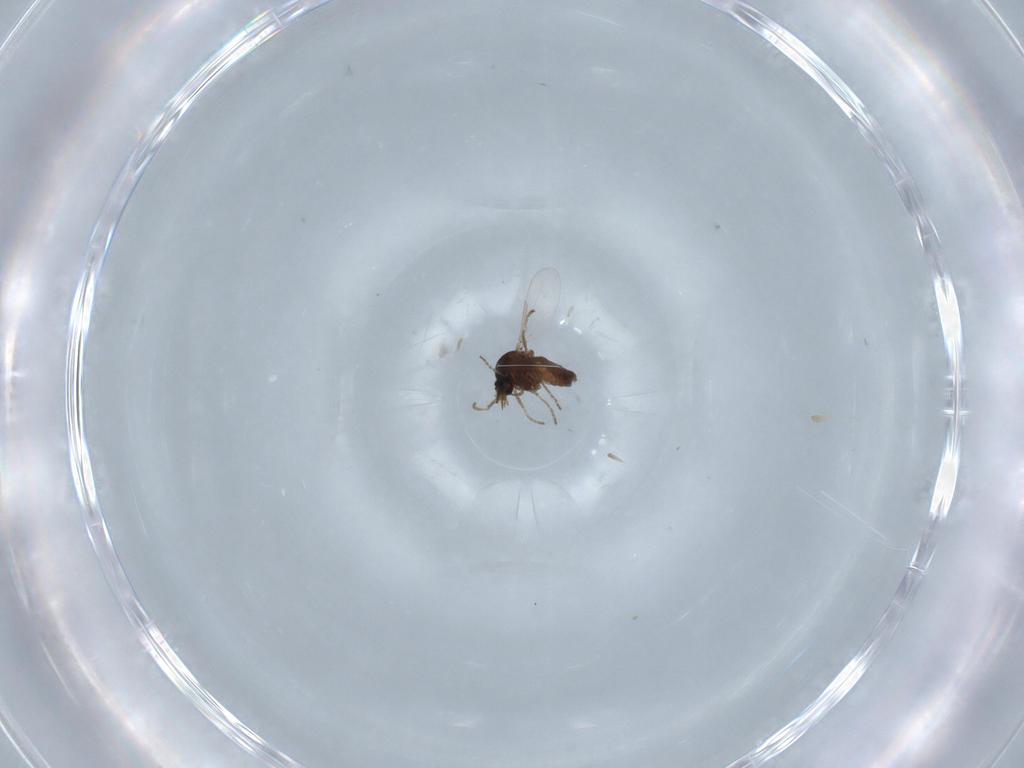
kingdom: Animalia
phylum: Arthropoda
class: Insecta
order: Diptera
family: Ceratopogonidae
